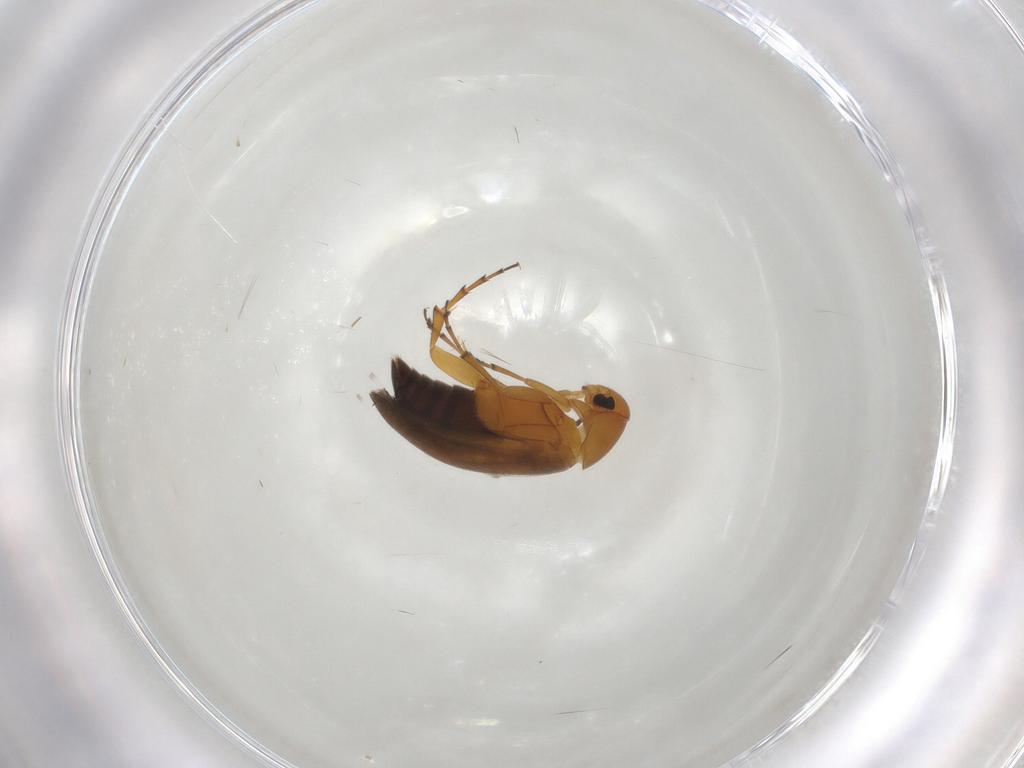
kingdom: Animalia
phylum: Arthropoda
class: Insecta
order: Coleoptera
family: Scraptiidae
